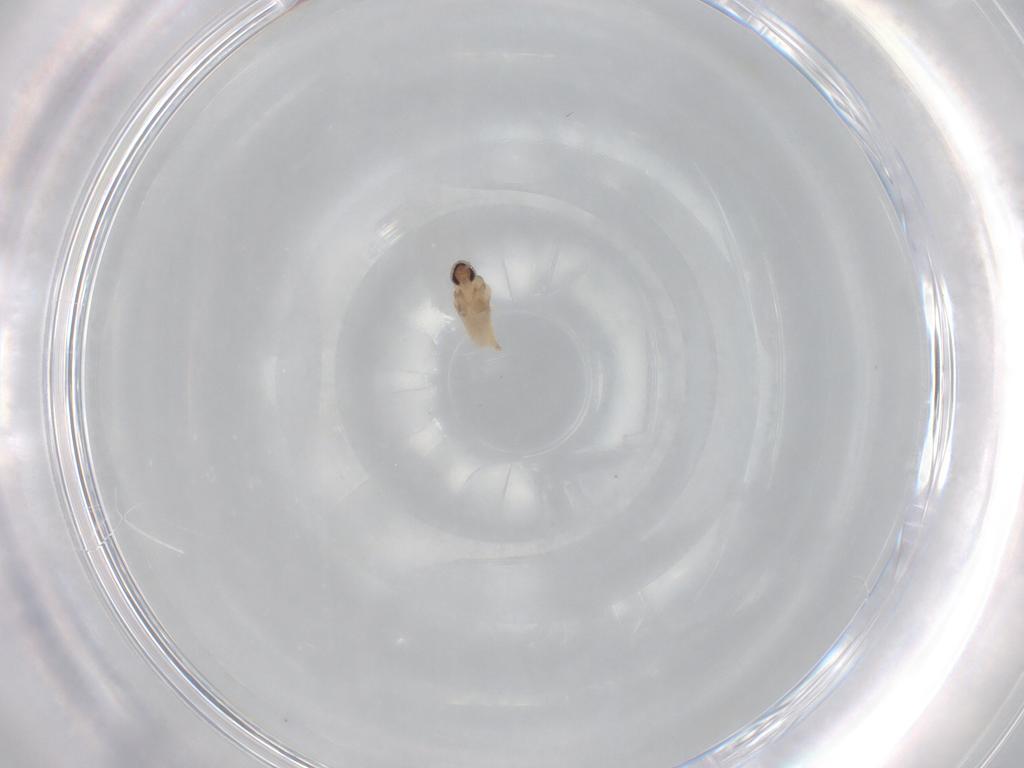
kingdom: Animalia
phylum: Arthropoda
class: Insecta
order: Diptera
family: Cecidomyiidae
